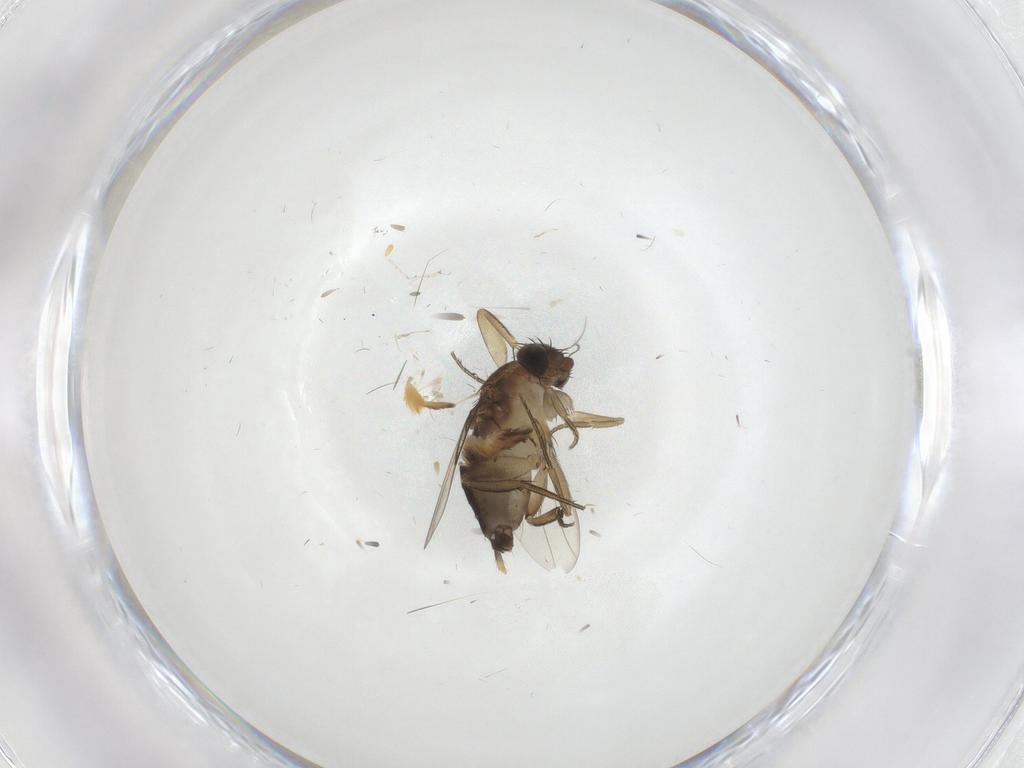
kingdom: Animalia
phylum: Arthropoda
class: Insecta
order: Diptera
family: Phoridae
